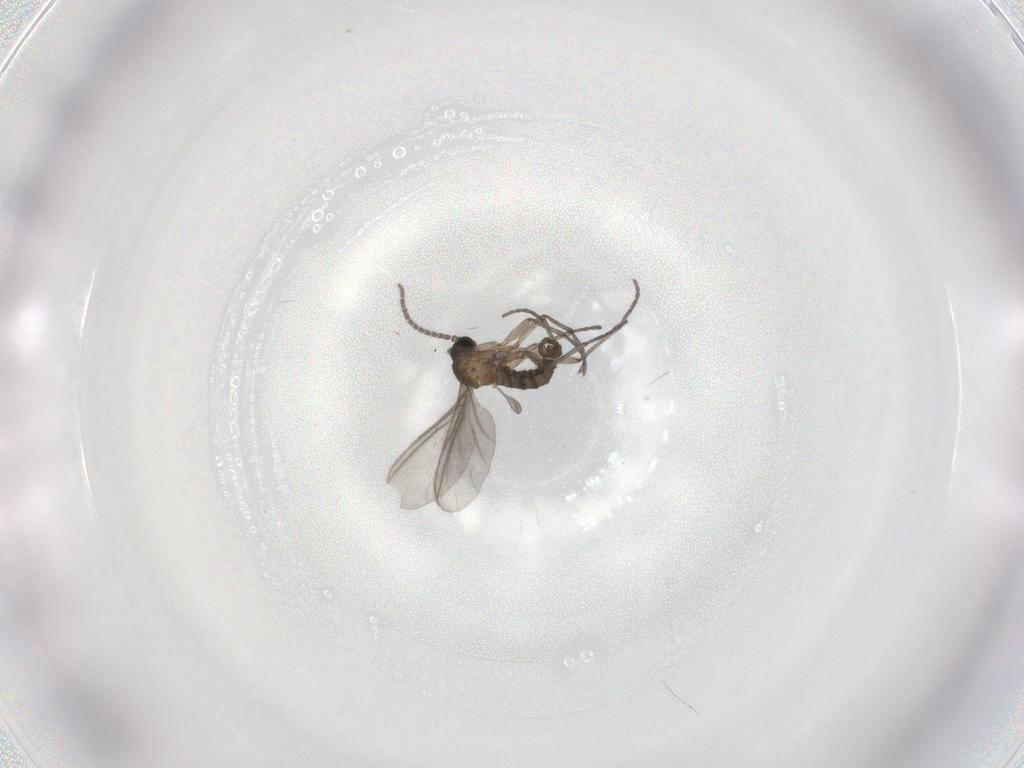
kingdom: Animalia
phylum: Arthropoda
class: Insecta
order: Diptera
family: Sciaridae
